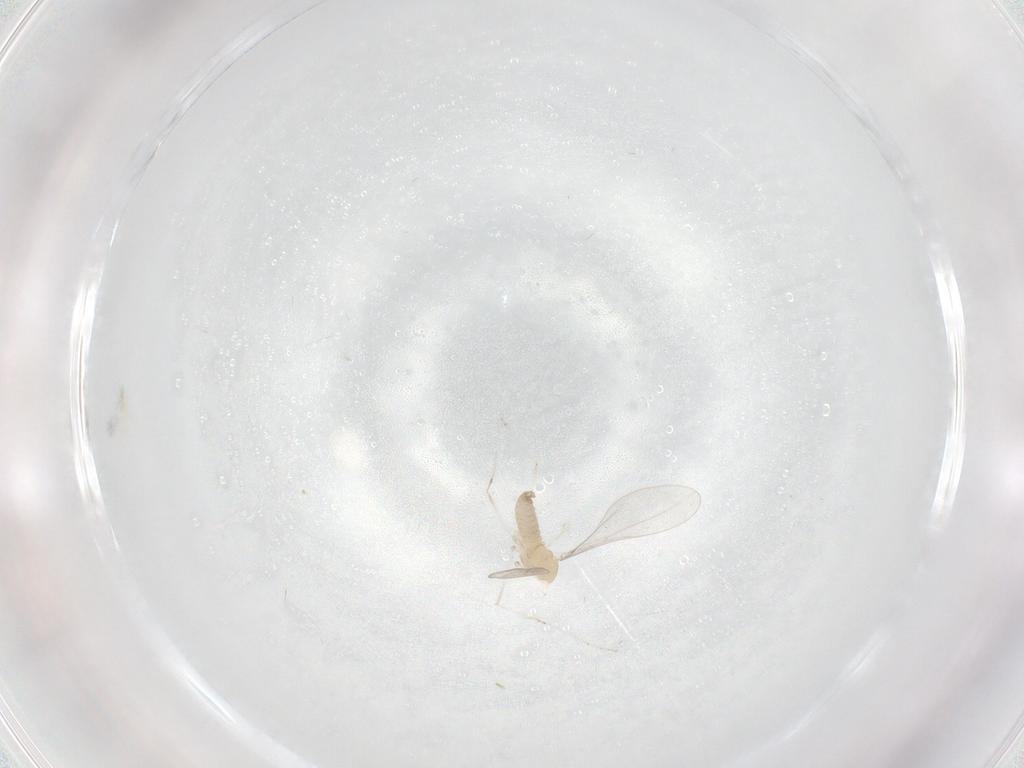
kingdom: Animalia
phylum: Arthropoda
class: Insecta
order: Diptera
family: Cecidomyiidae
